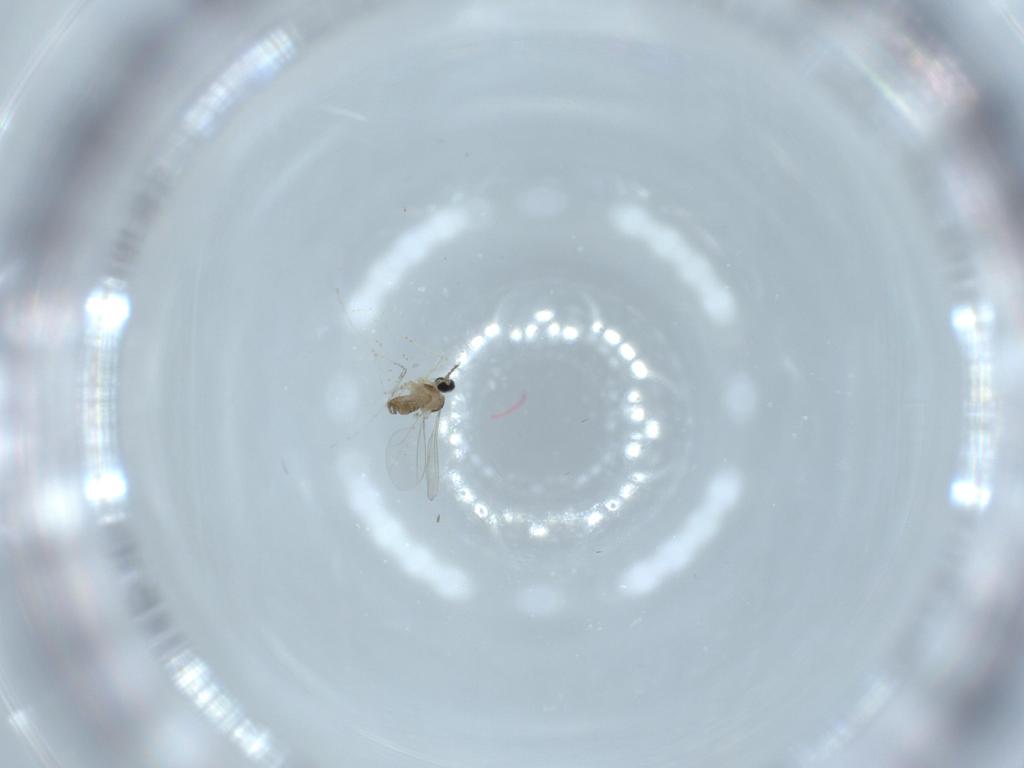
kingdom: Animalia
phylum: Arthropoda
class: Insecta
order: Diptera
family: Cecidomyiidae
